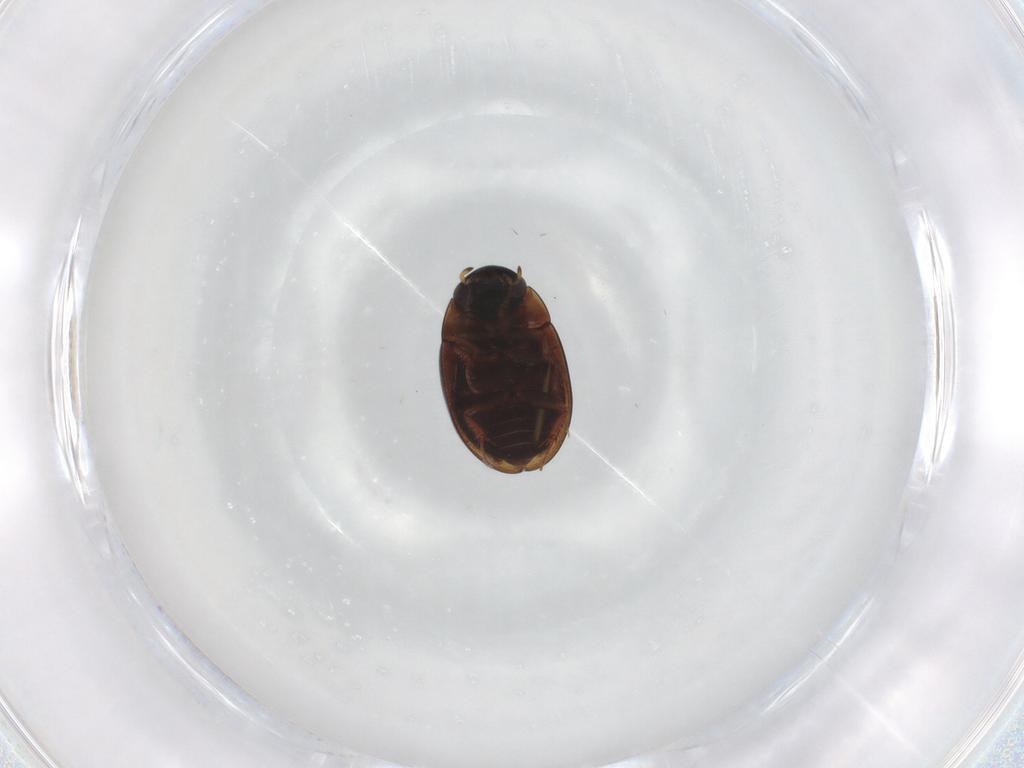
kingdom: Animalia
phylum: Arthropoda
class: Insecta
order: Coleoptera
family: Hydrophilidae
